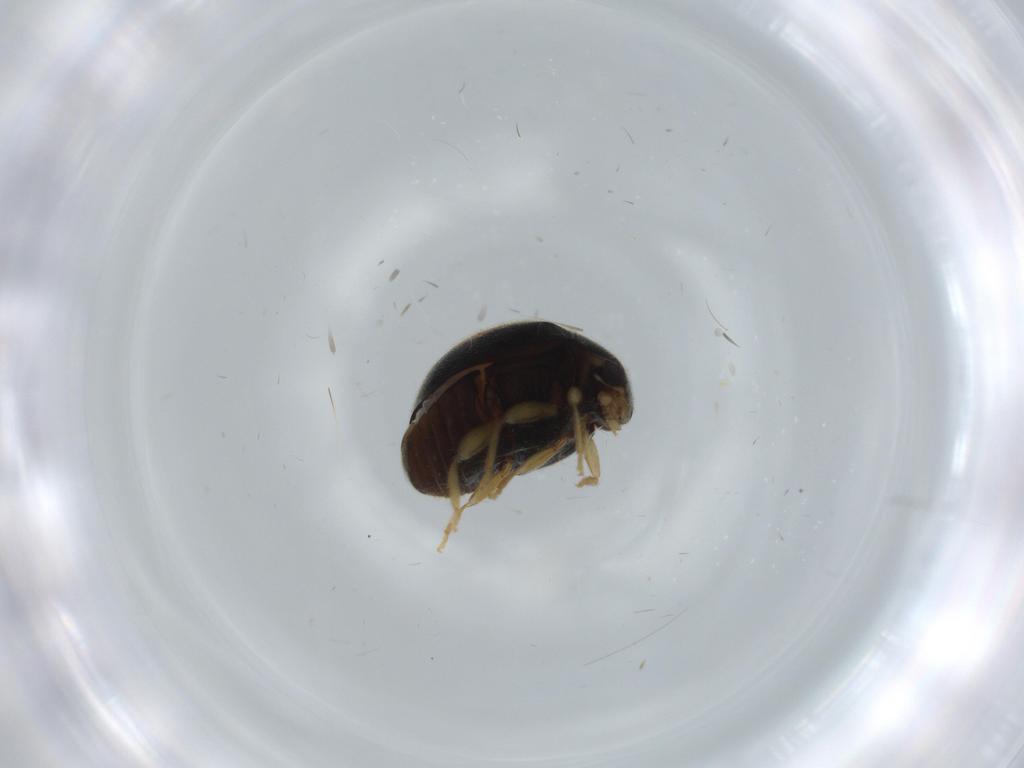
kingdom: Animalia
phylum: Arthropoda
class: Insecta
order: Coleoptera
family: Coccinellidae
